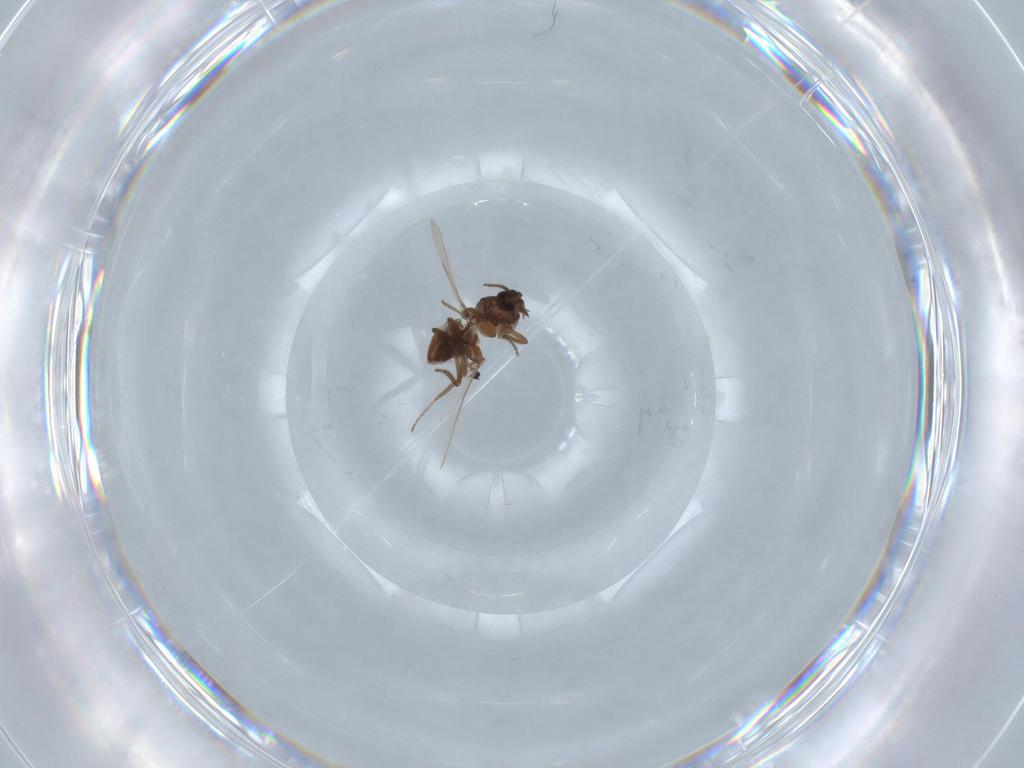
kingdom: Animalia
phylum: Arthropoda
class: Insecta
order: Diptera
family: Ceratopogonidae
